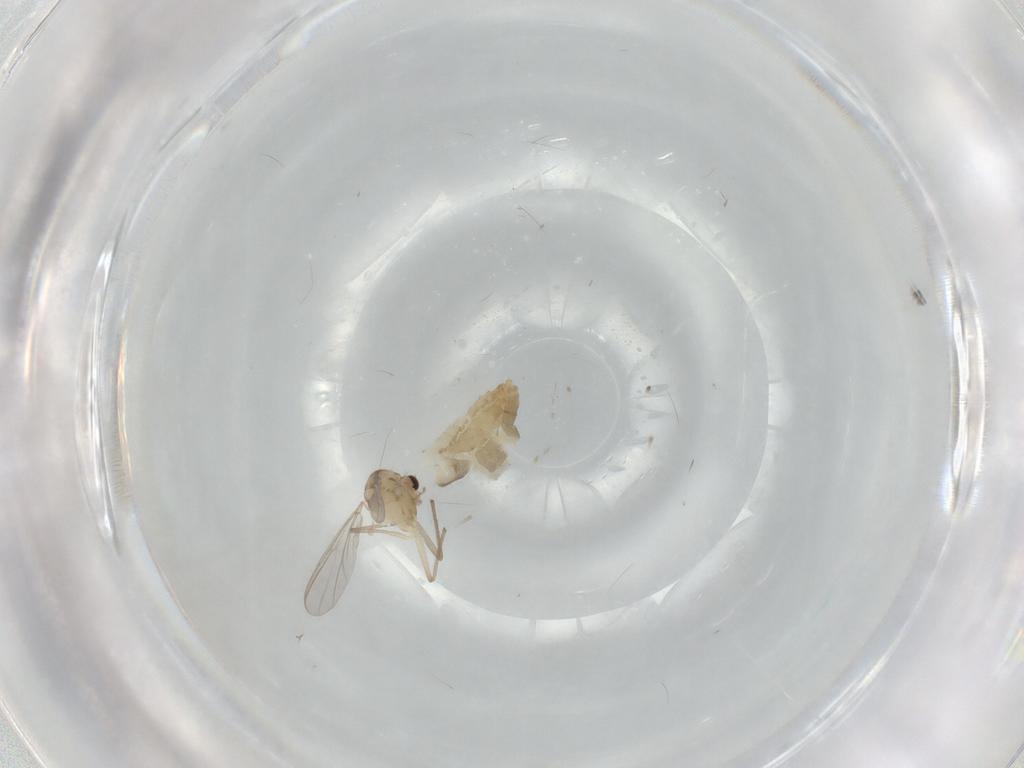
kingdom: Animalia
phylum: Arthropoda
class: Insecta
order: Diptera
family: Chironomidae
